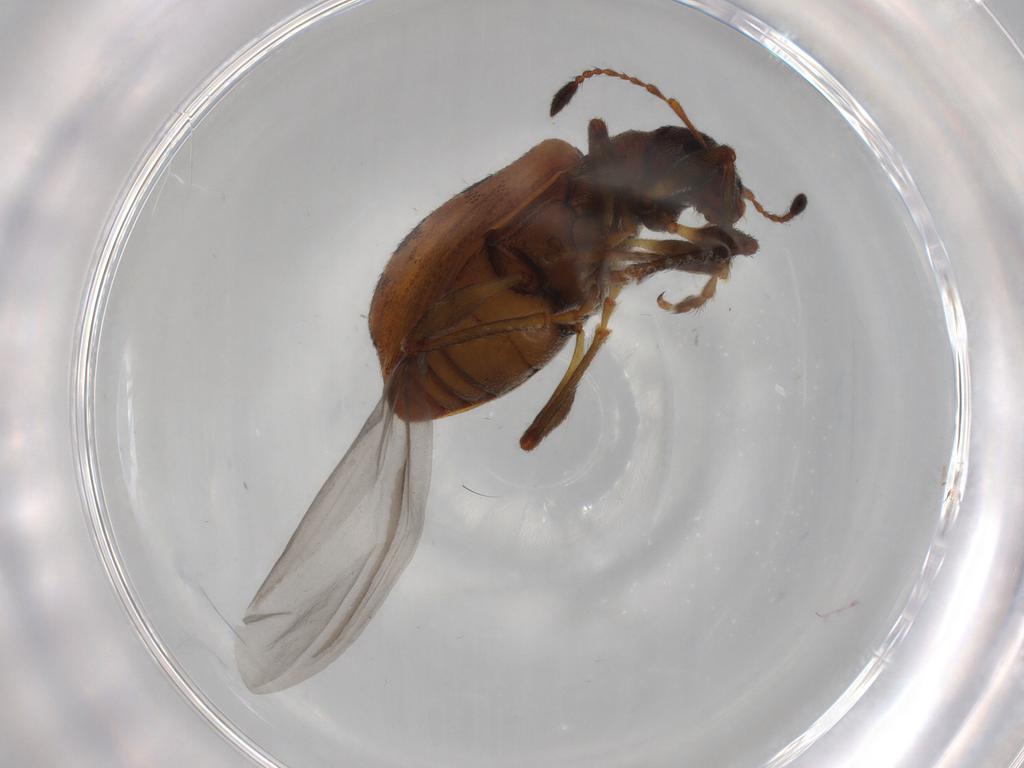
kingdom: Animalia
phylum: Arthropoda
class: Insecta
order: Coleoptera
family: Curculionidae
